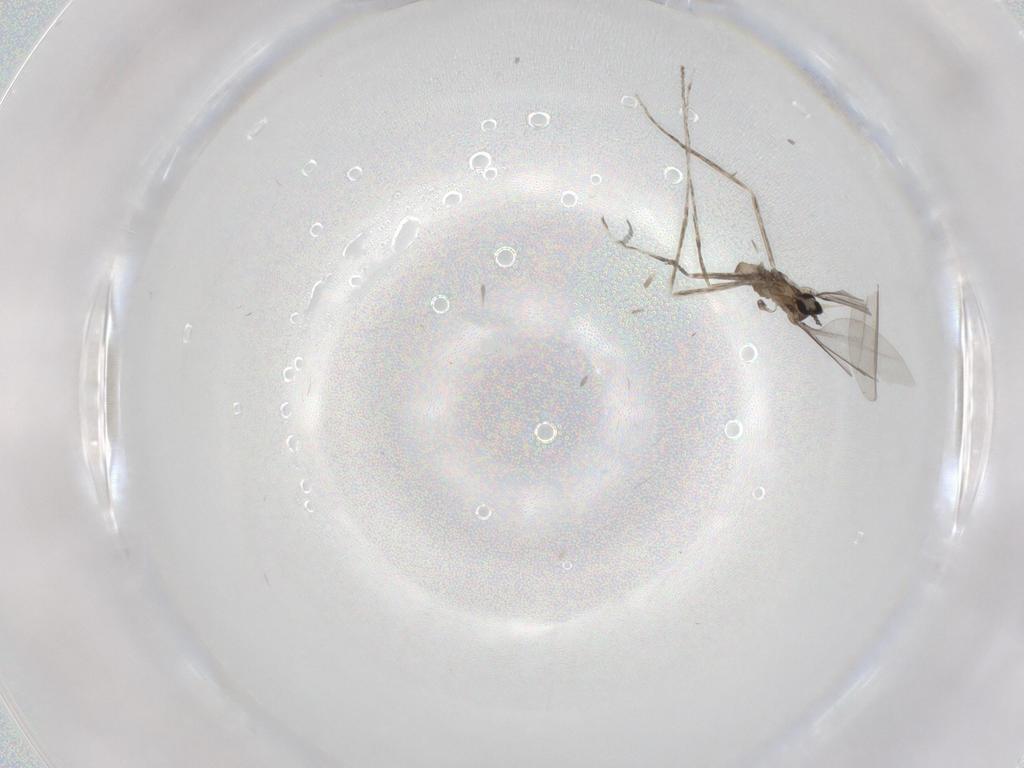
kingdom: Animalia
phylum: Arthropoda
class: Insecta
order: Diptera
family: Cecidomyiidae
